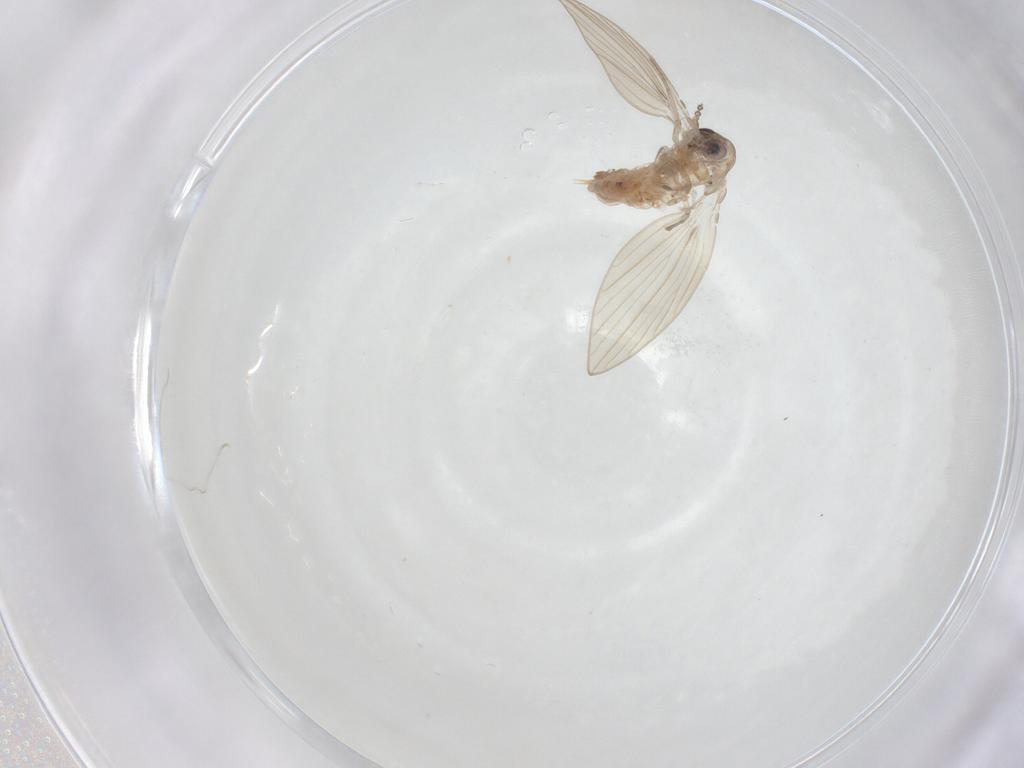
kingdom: Animalia
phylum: Arthropoda
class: Insecta
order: Diptera
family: Psychodidae
